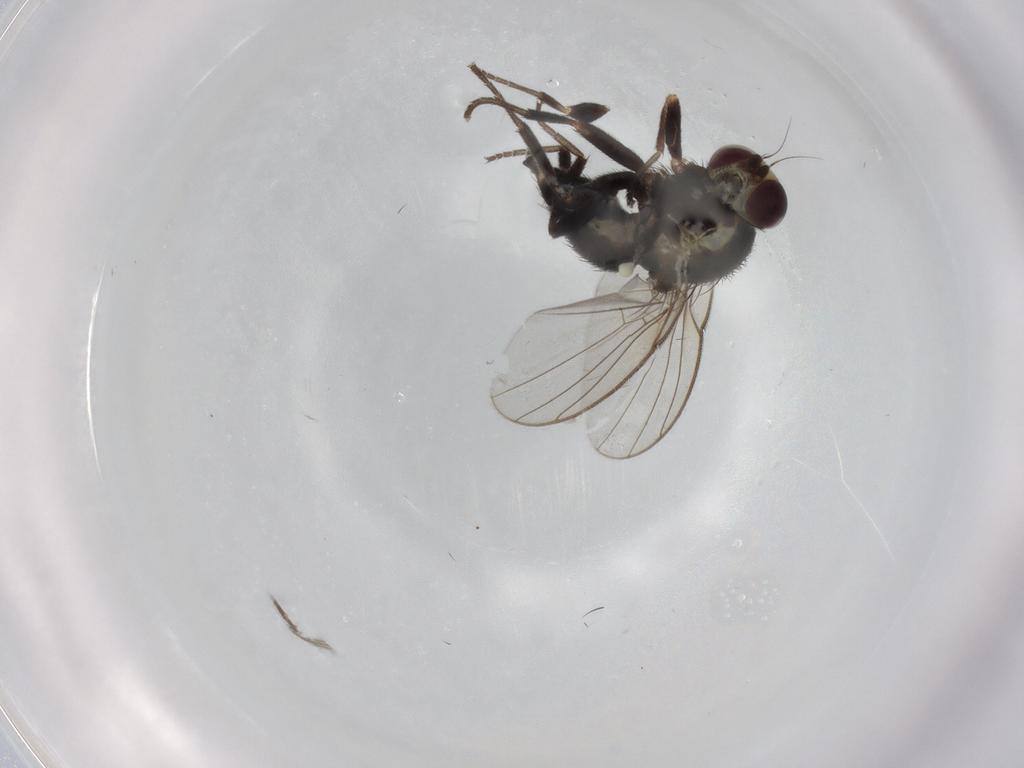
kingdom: Animalia
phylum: Arthropoda
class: Insecta
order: Diptera
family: Agromyzidae
